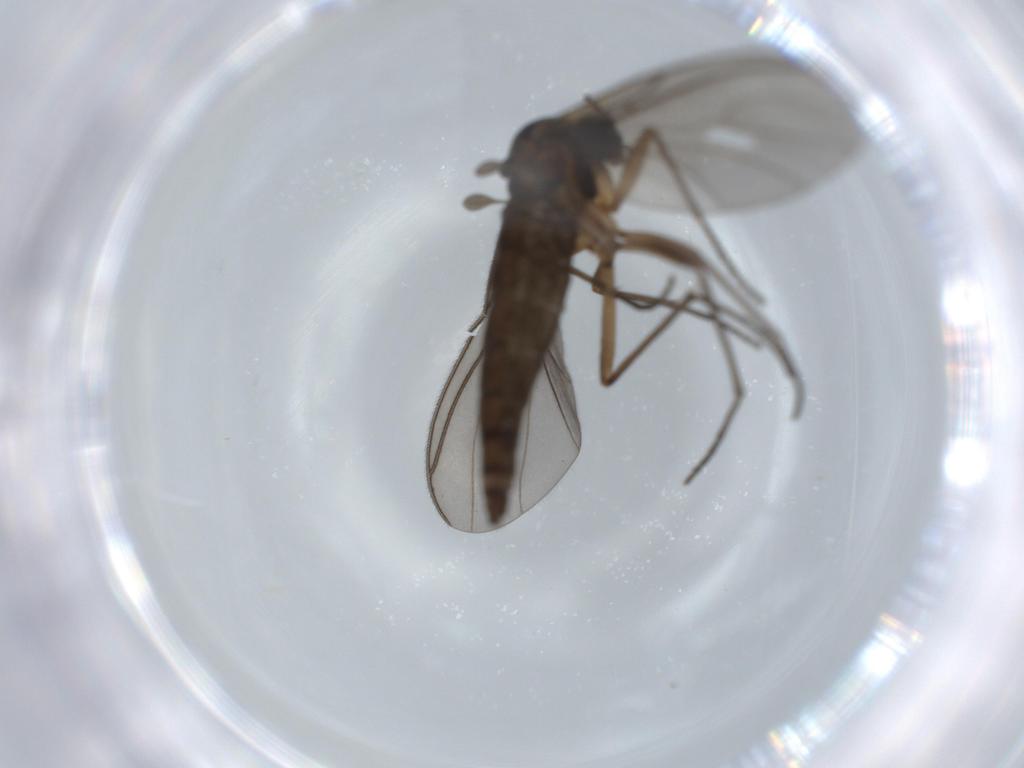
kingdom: Animalia
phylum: Arthropoda
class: Insecta
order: Diptera
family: Sciaridae
